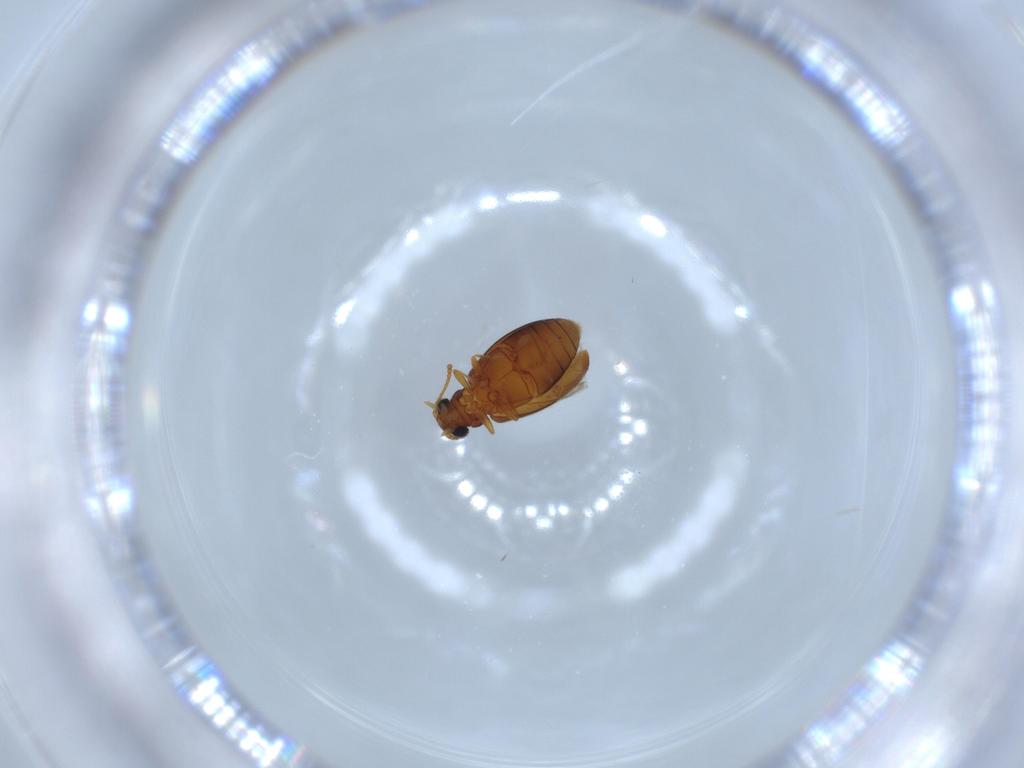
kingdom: Animalia
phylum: Arthropoda
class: Insecta
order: Coleoptera
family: Aderidae
